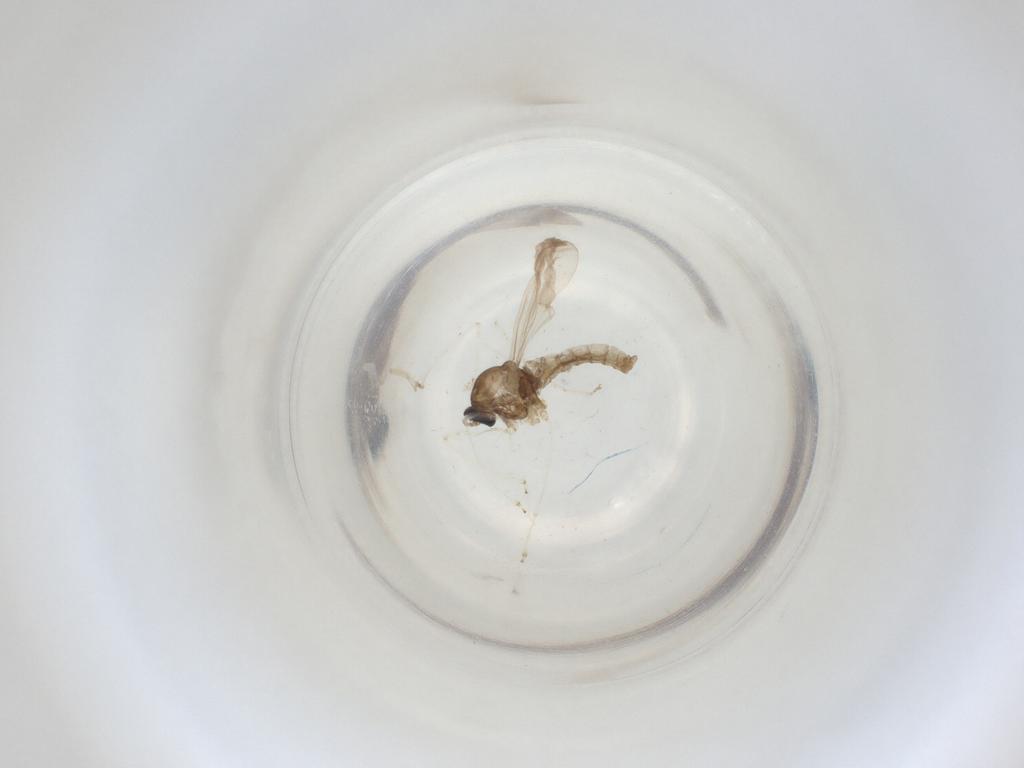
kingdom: Animalia
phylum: Arthropoda
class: Insecta
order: Diptera
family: Cecidomyiidae
